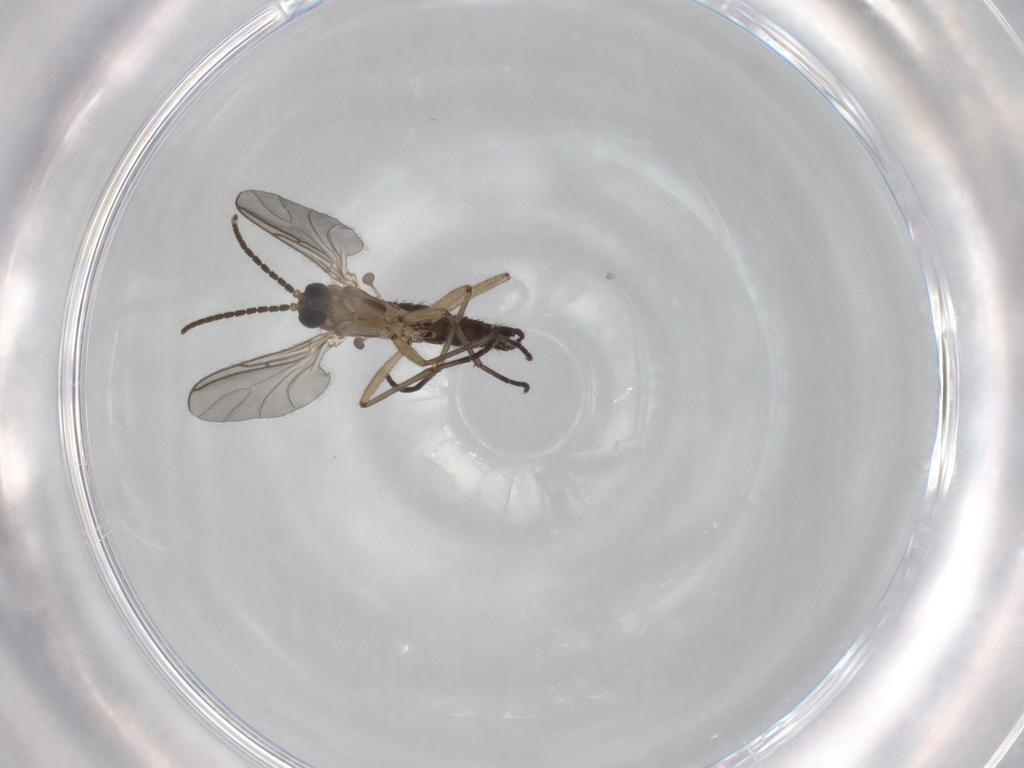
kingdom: Animalia
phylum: Arthropoda
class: Insecta
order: Diptera
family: Sciaridae
